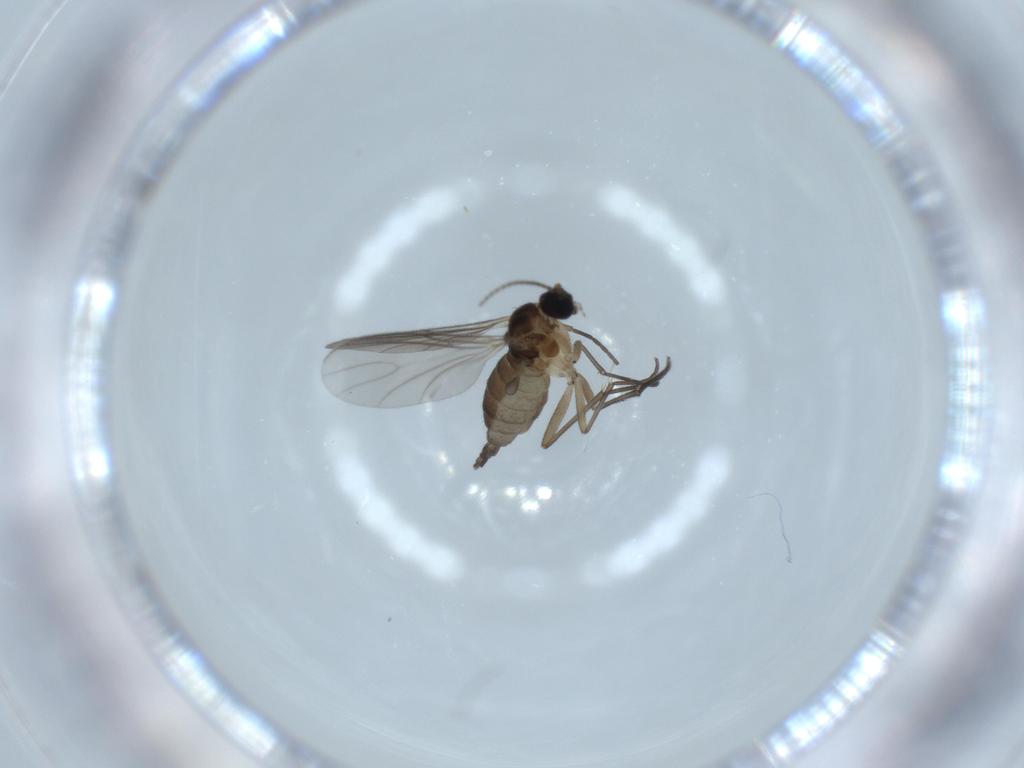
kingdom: Animalia
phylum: Arthropoda
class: Insecta
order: Diptera
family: Sciaridae
